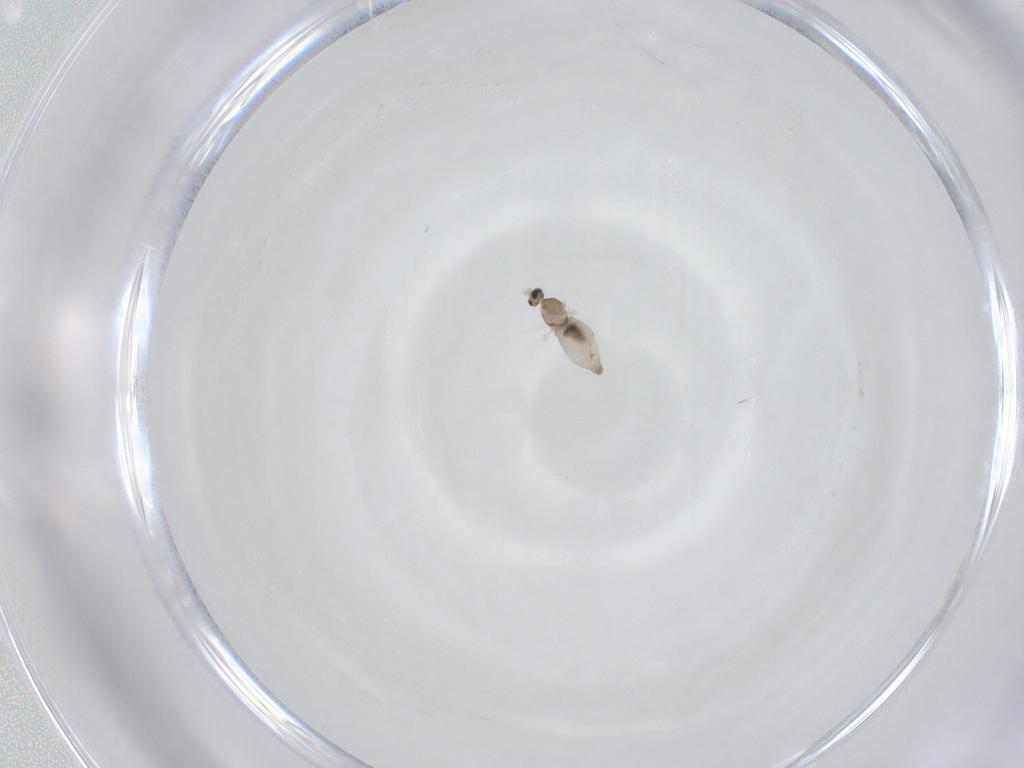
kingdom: Animalia
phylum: Arthropoda
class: Insecta
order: Diptera
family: Cecidomyiidae
